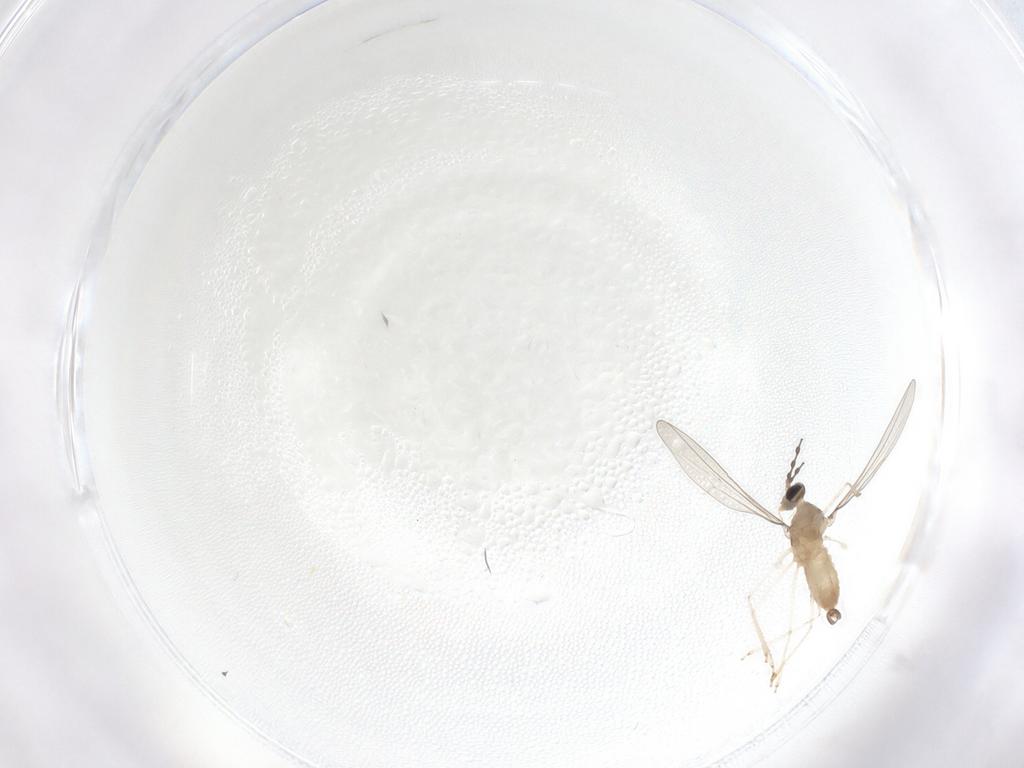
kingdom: Animalia
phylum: Arthropoda
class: Insecta
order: Diptera
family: Cecidomyiidae
